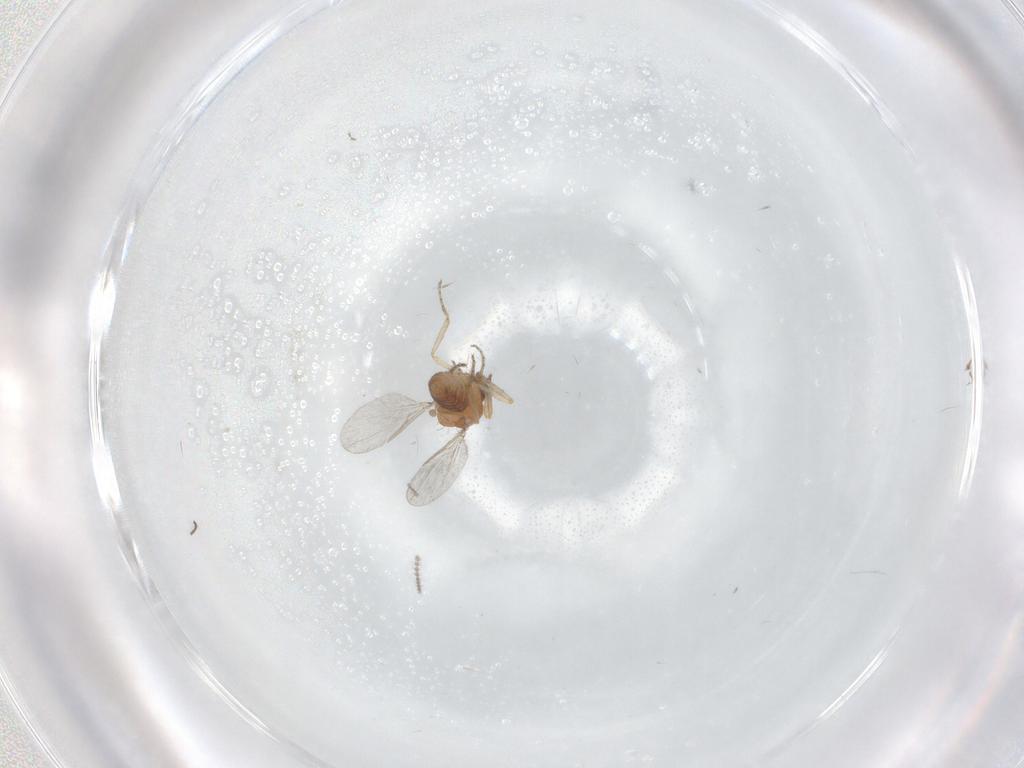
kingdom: Animalia
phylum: Arthropoda
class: Insecta
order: Diptera
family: Ceratopogonidae
